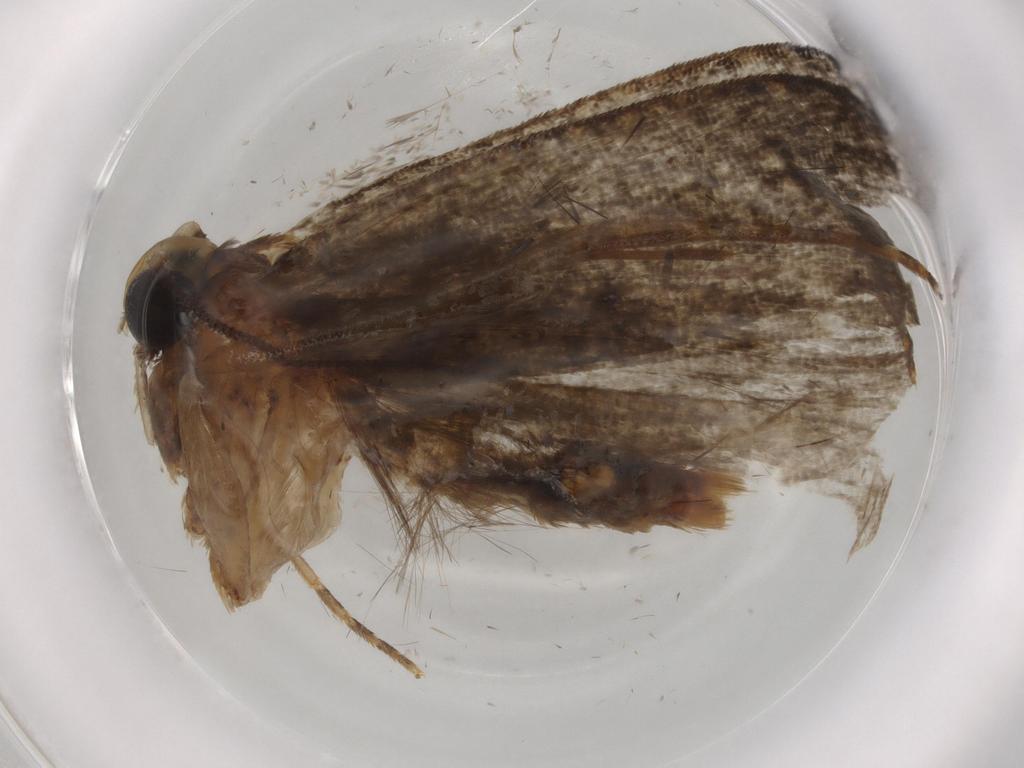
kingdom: Animalia
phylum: Arthropoda
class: Insecta
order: Lepidoptera
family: Tineidae
